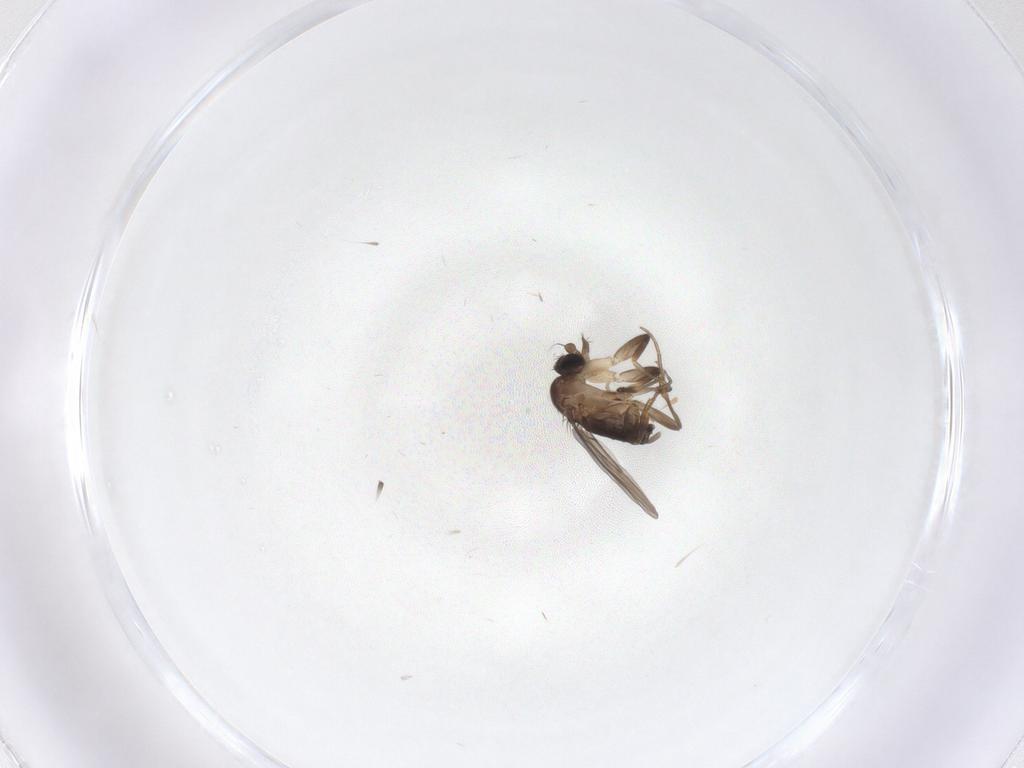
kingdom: Animalia
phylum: Arthropoda
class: Insecta
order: Diptera
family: Phoridae
